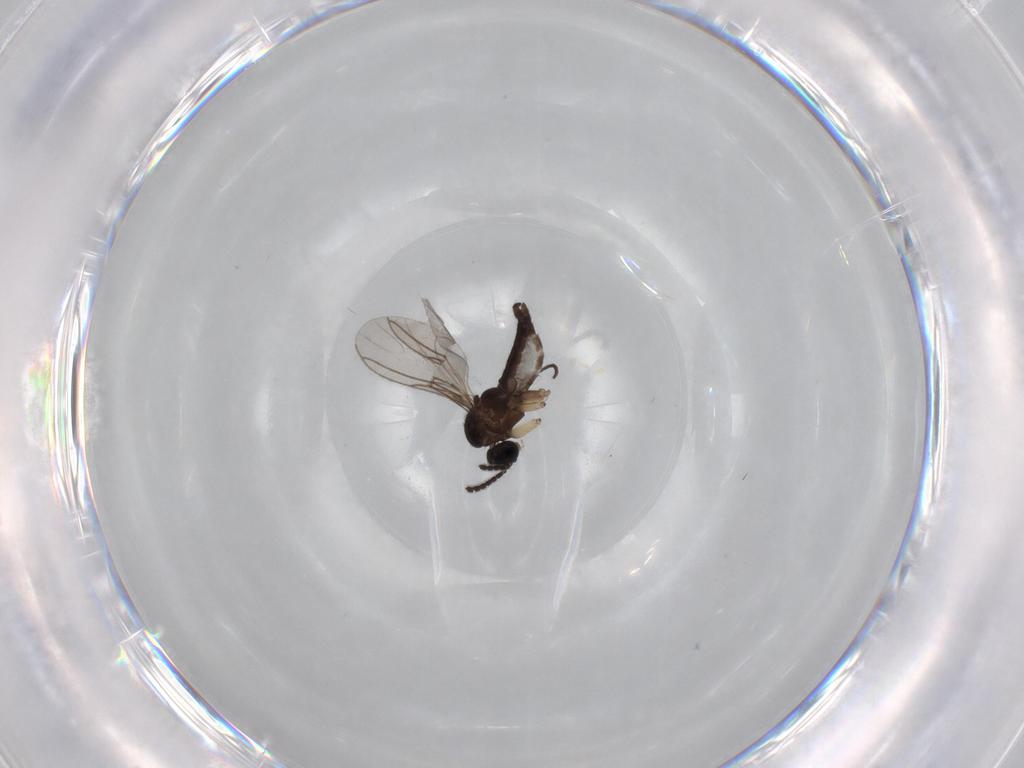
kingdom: Animalia
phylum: Arthropoda
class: Insecta
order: Diptera
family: Sciaridae
